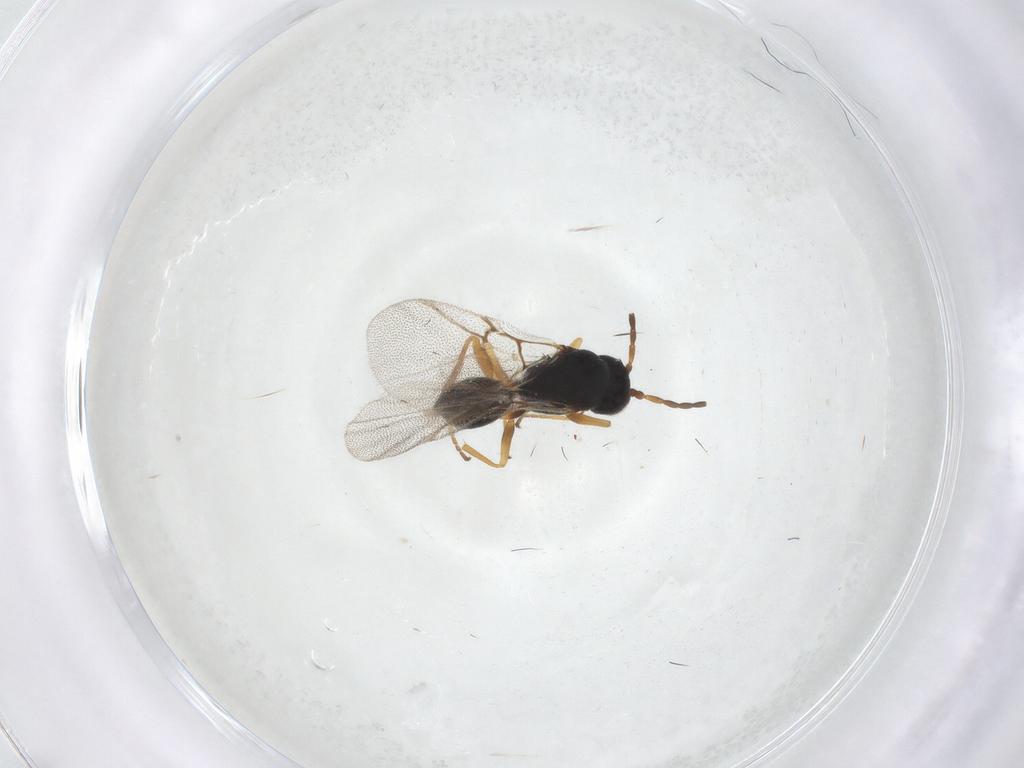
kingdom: Animalia
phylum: Arthropoda
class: Insecta
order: Hymenoptera
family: Cynipidae
